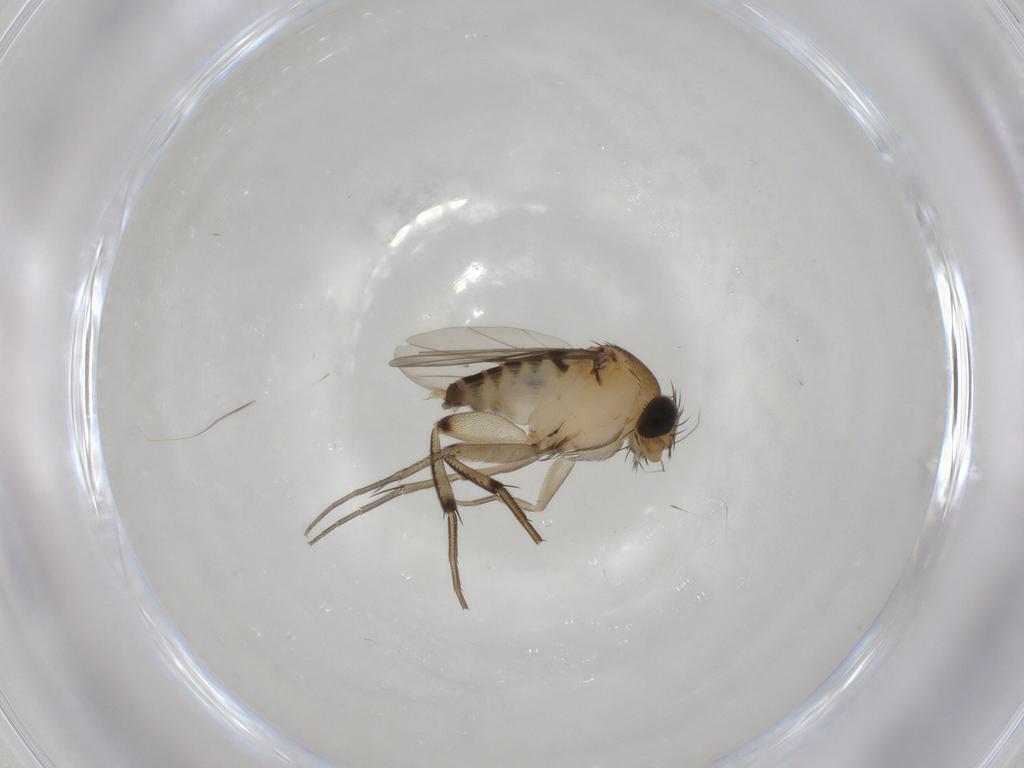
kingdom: Animalia
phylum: Arthropoda
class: Insecta
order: Diptera
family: Phoridae
